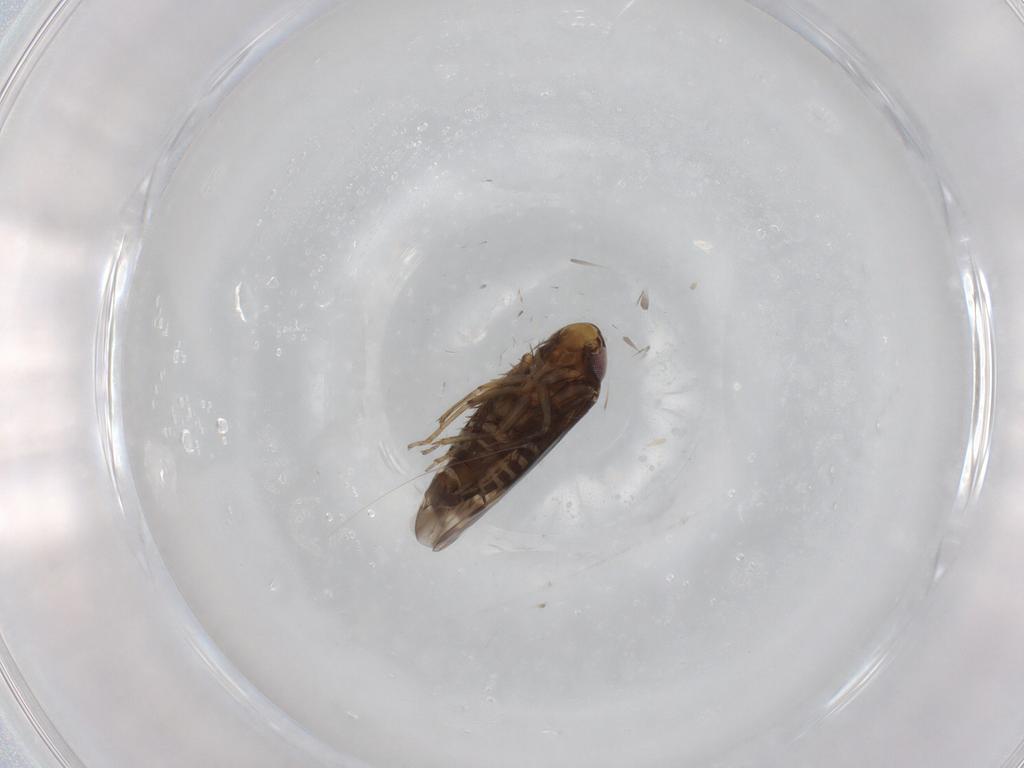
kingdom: Animalia
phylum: Arthropoda
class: Insecta
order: Hemiptera
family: Cicadellidae
